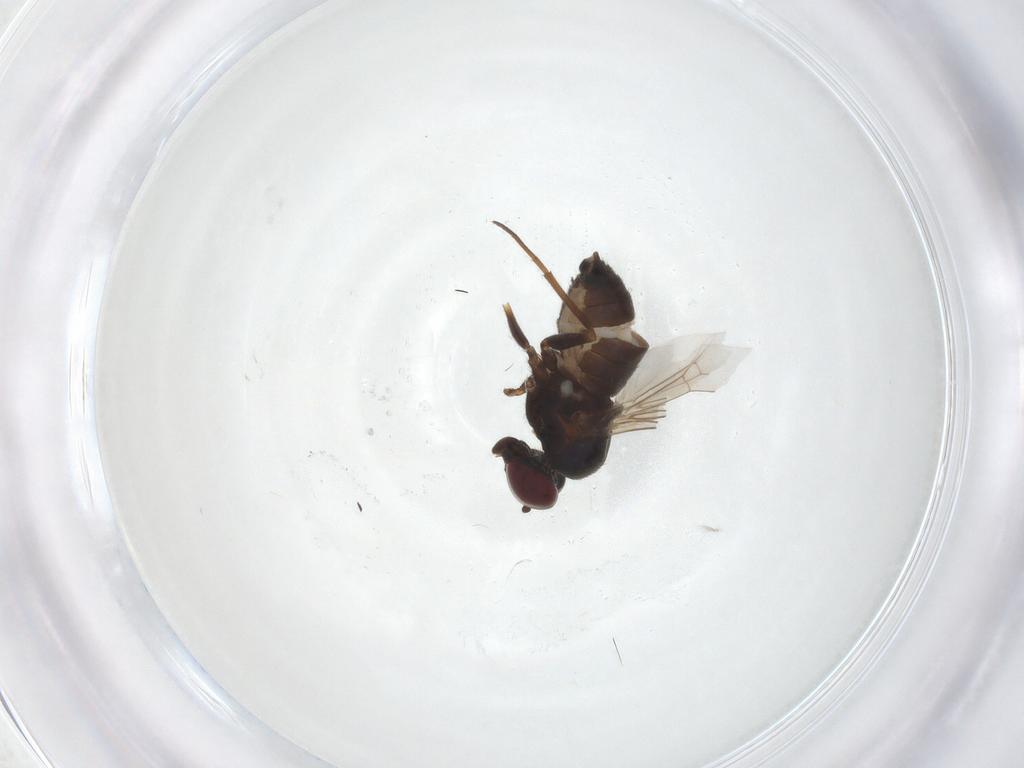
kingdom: Animalia
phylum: Arthropoda
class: Insecta
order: Diptera
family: Dolichopodidae
